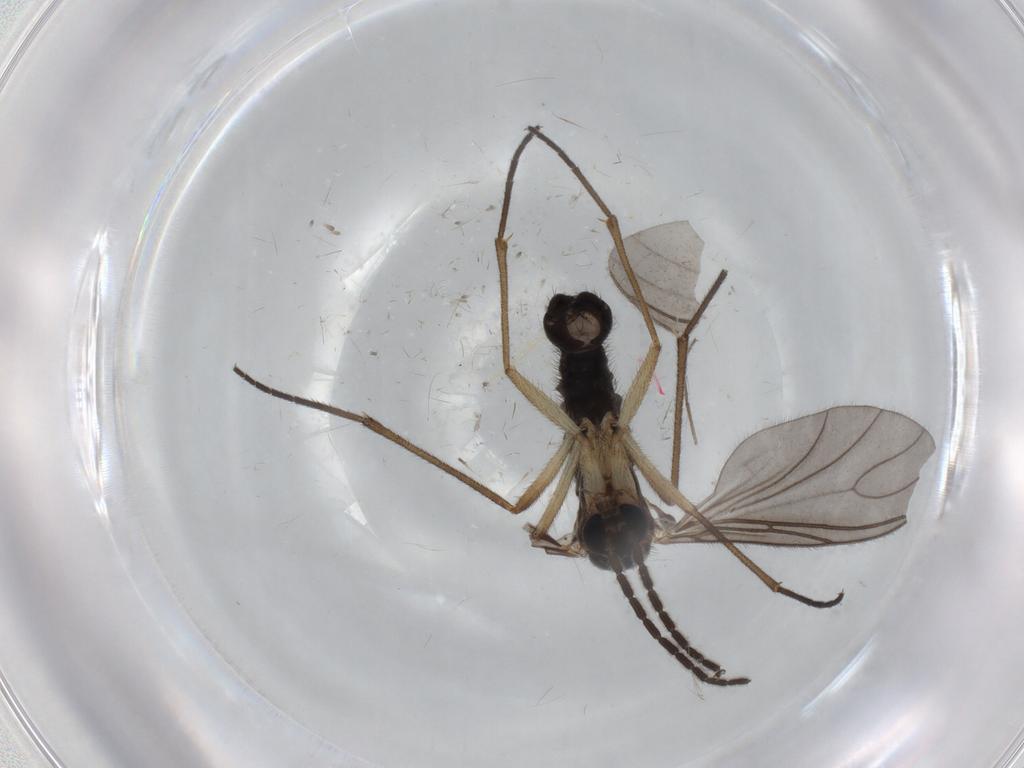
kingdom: Animalia
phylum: Arthropoda
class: Insecta
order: Diptera
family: Sciaridae
